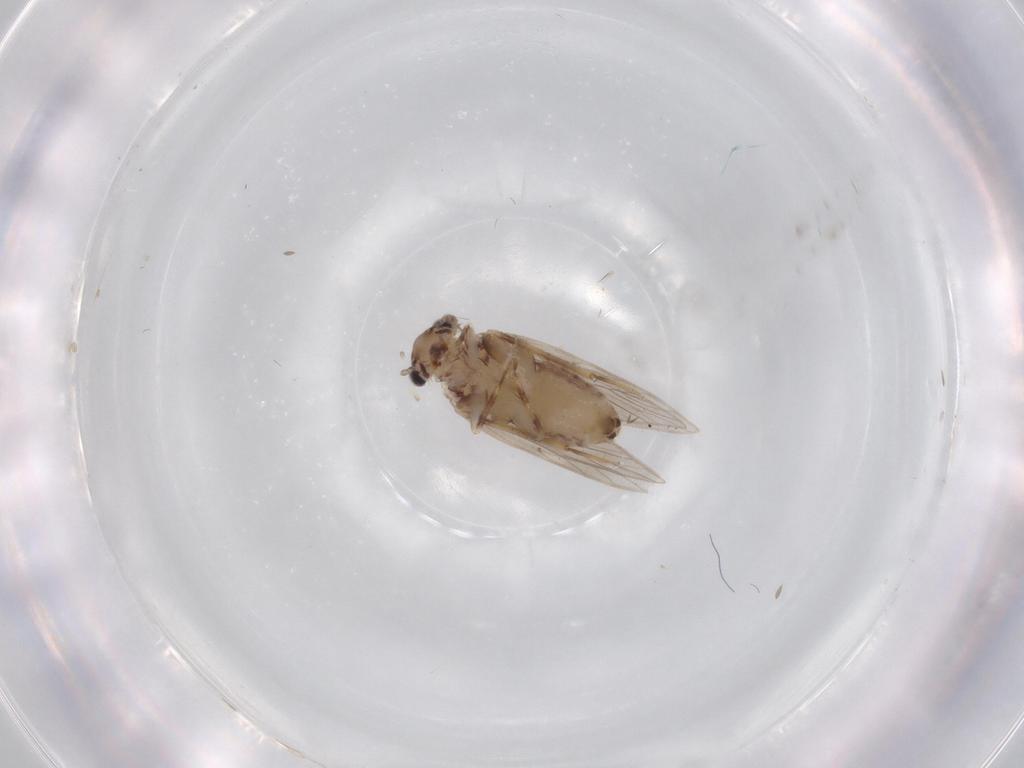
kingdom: Animalia
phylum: Arthropoda
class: Insecta
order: Psocodea
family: Lepidopsocidae
